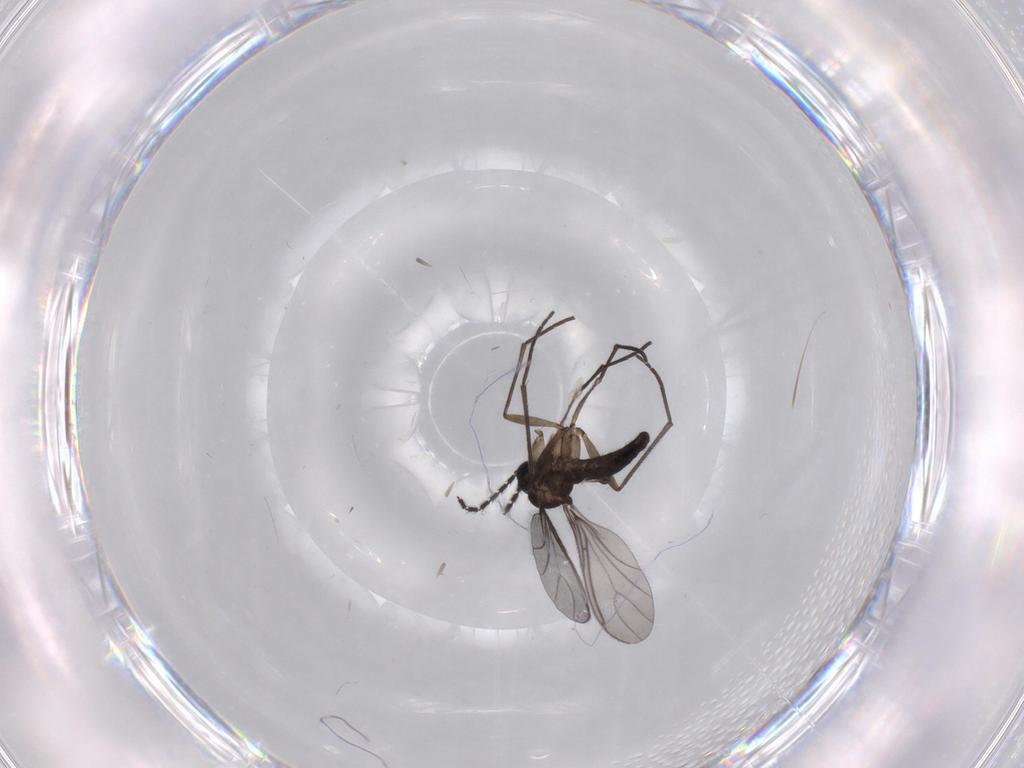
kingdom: Animalia
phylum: Arthropoda
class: Insecta
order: Diptera
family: Sciaridae
